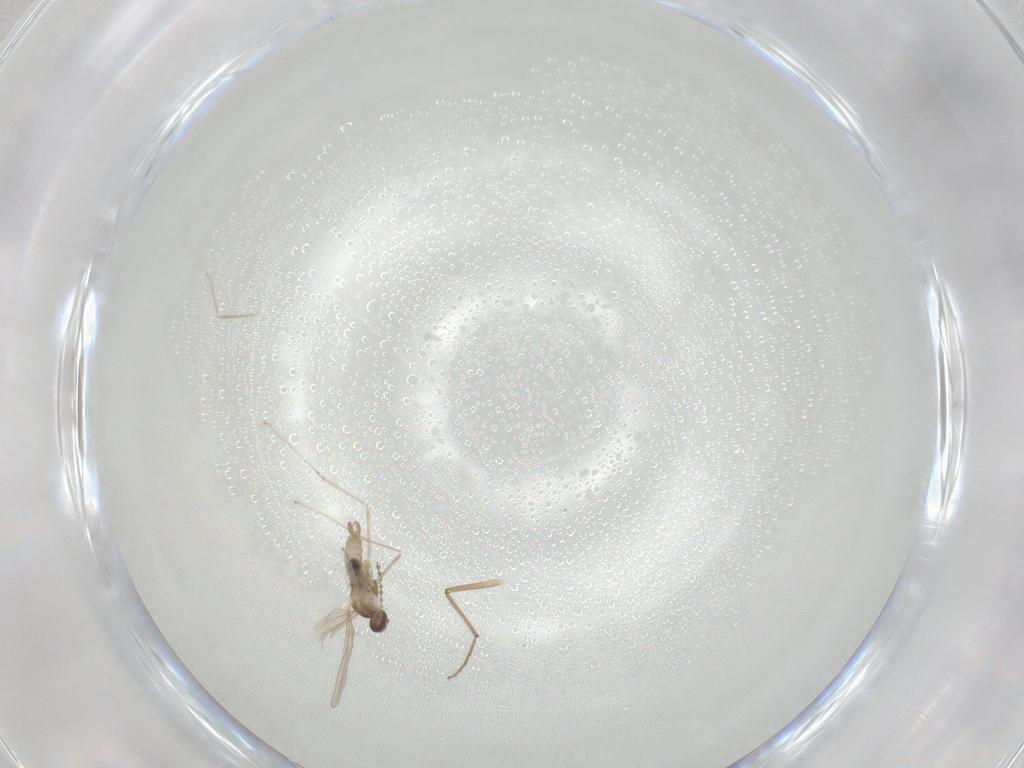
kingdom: Animalia
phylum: Arthropoda
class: Insecta
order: Diptera
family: Cecidomyiidae
